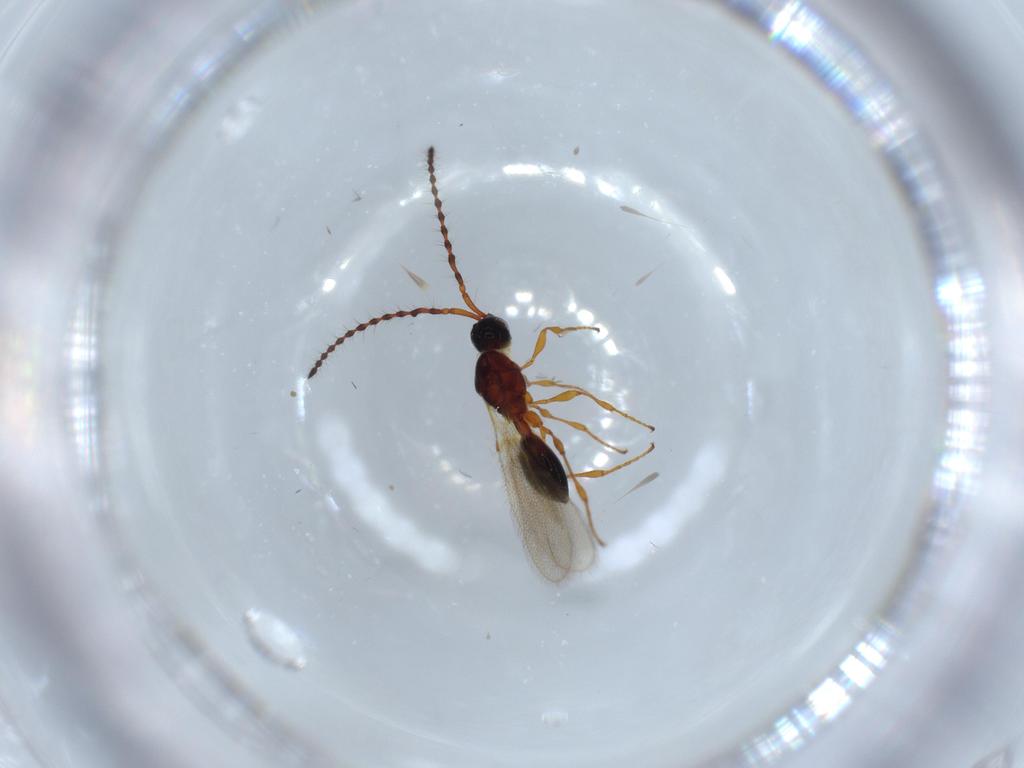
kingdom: Animalia
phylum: Arthropoda
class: Insecta
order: Hymenoptera
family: Diapriidae
